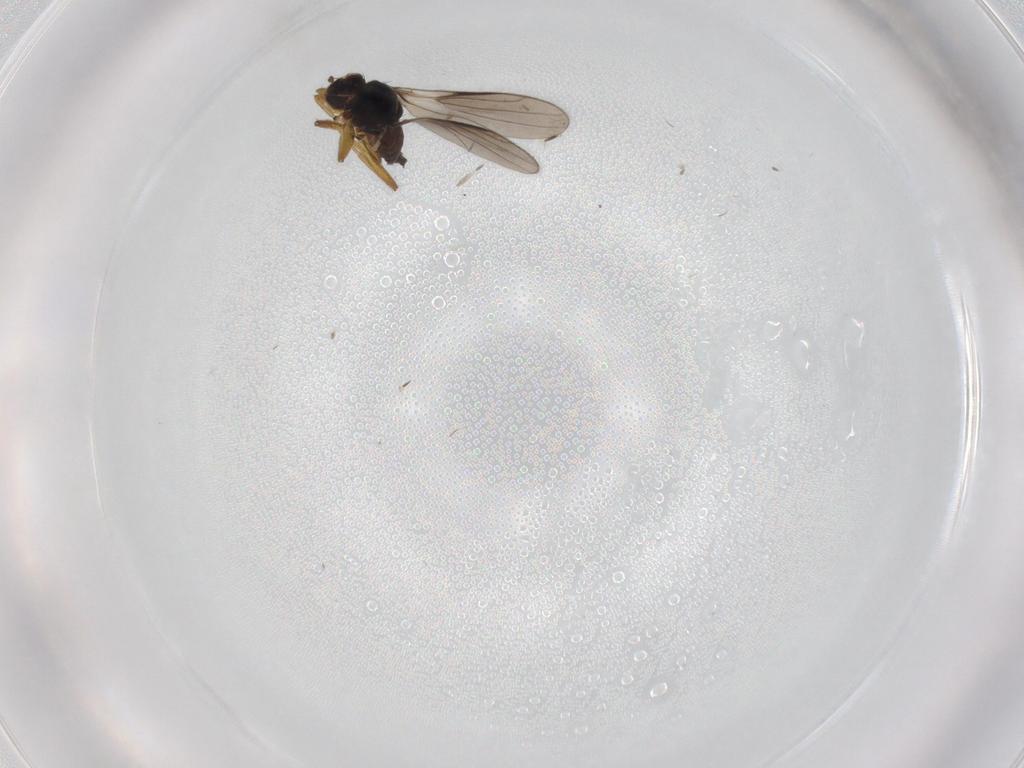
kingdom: Animalia
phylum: Arthropoda
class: Insecta
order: Diptera
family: Hybotidae
